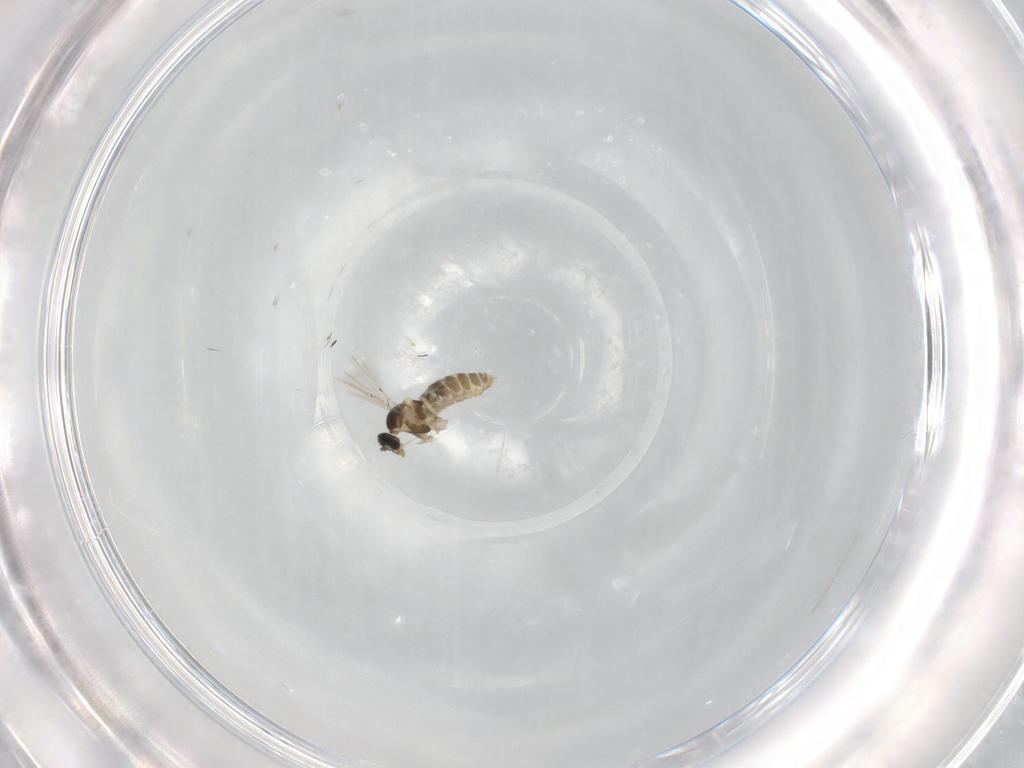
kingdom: Animalia
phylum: Arthropoda
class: Insecta
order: Diptera
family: Cecidomyiidae
